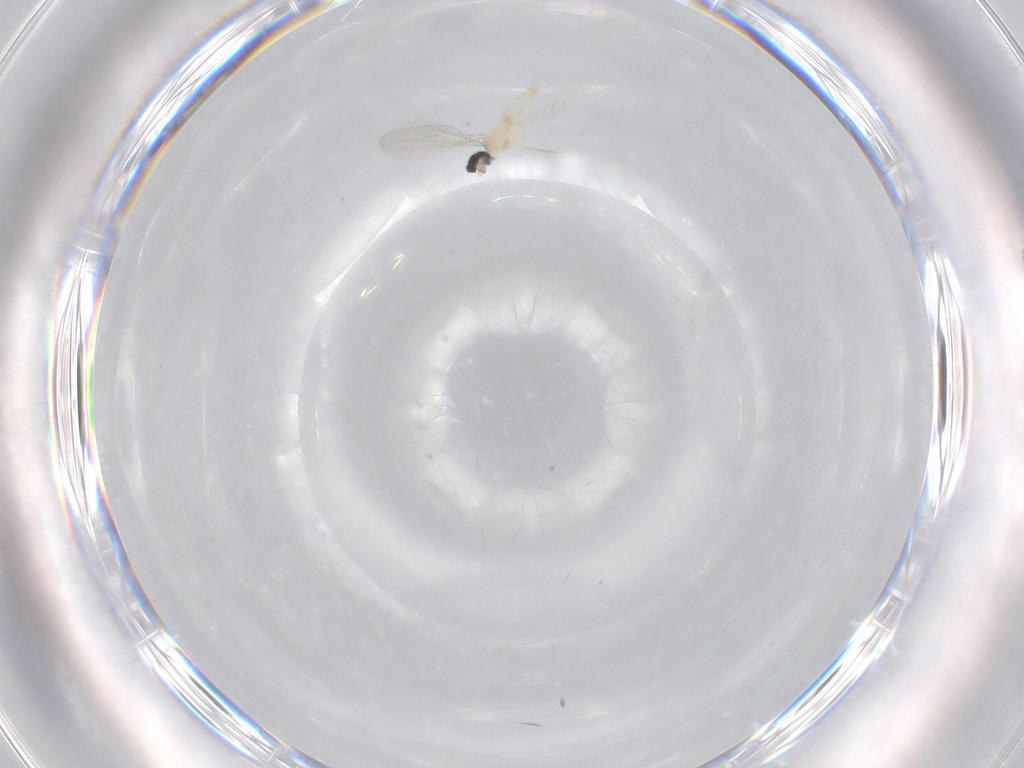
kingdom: Animalia
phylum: Arthropoda
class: Insecta
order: Diptera
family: Cecidomyiidae
